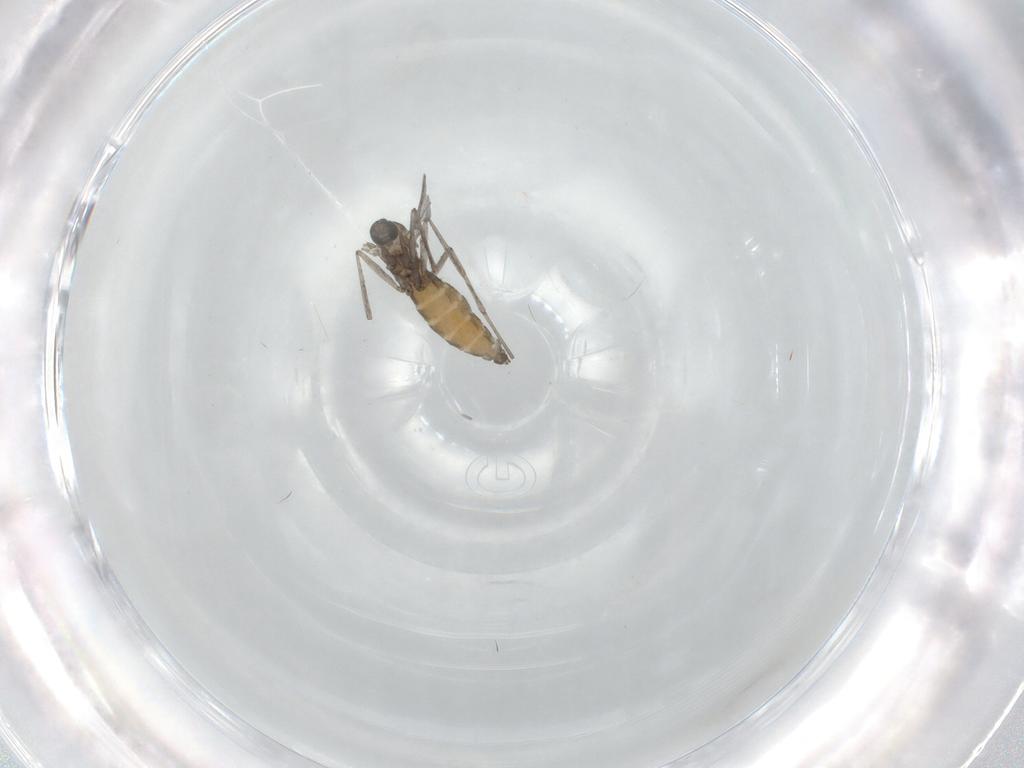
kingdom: Animalia
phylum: Arthropoda
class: Insecta
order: Diptera
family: Cecidomyiidae
